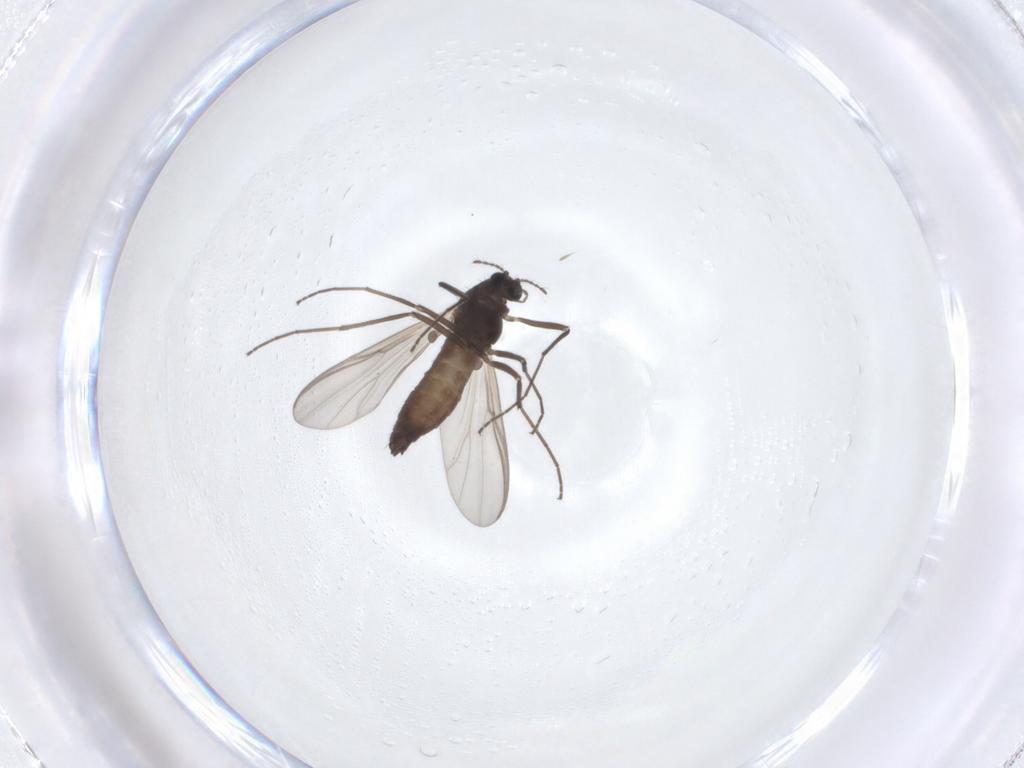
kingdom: Animalia
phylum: Arthropoda
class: Insecta
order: Diptera
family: Chironomidae
